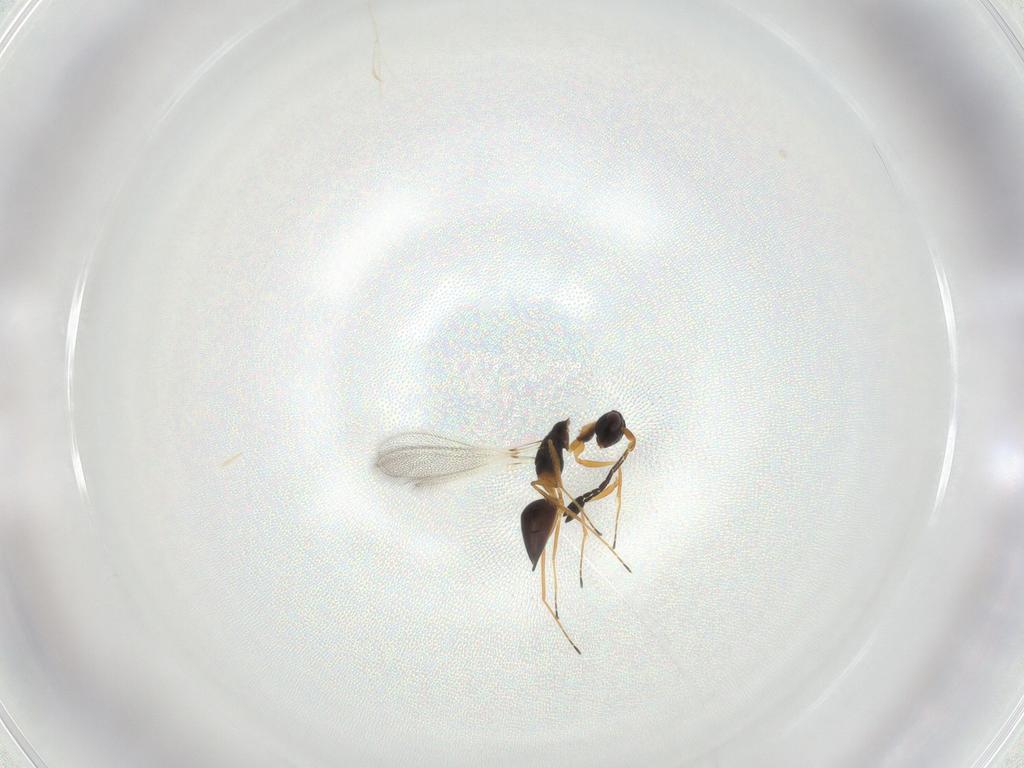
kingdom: Animalia
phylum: Arthropoda
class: Insecta
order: Hymenoptera
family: Mymaridae
